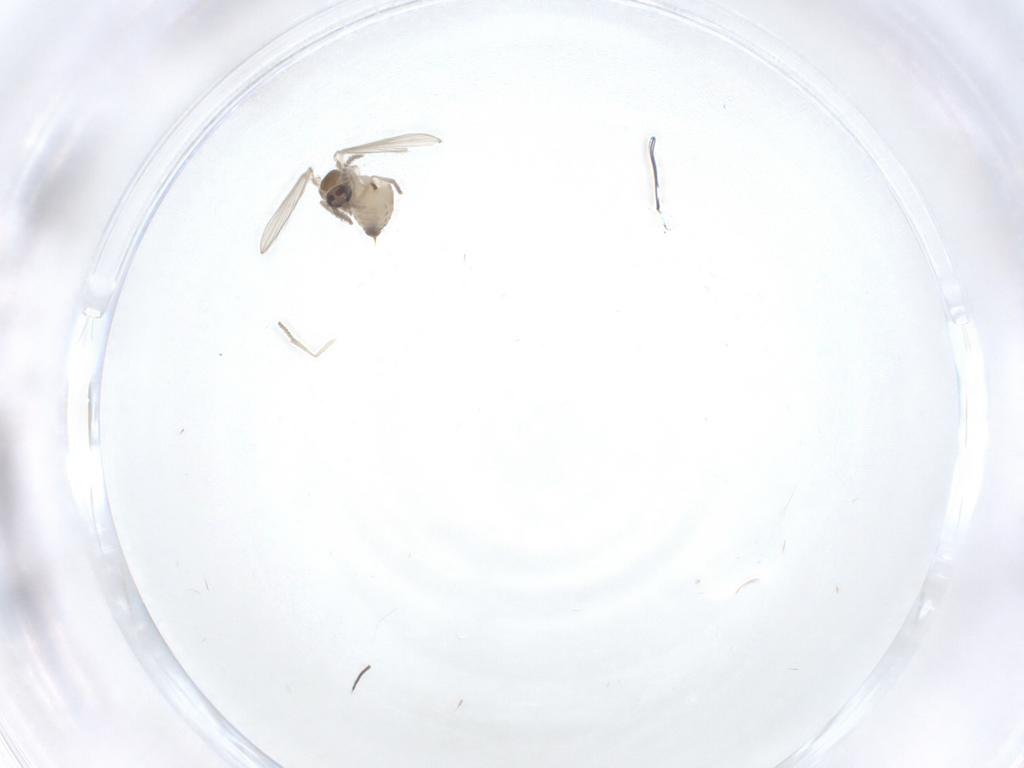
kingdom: Animalia
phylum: Arthropoda
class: Insecta
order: Diptera
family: Psychodidae
